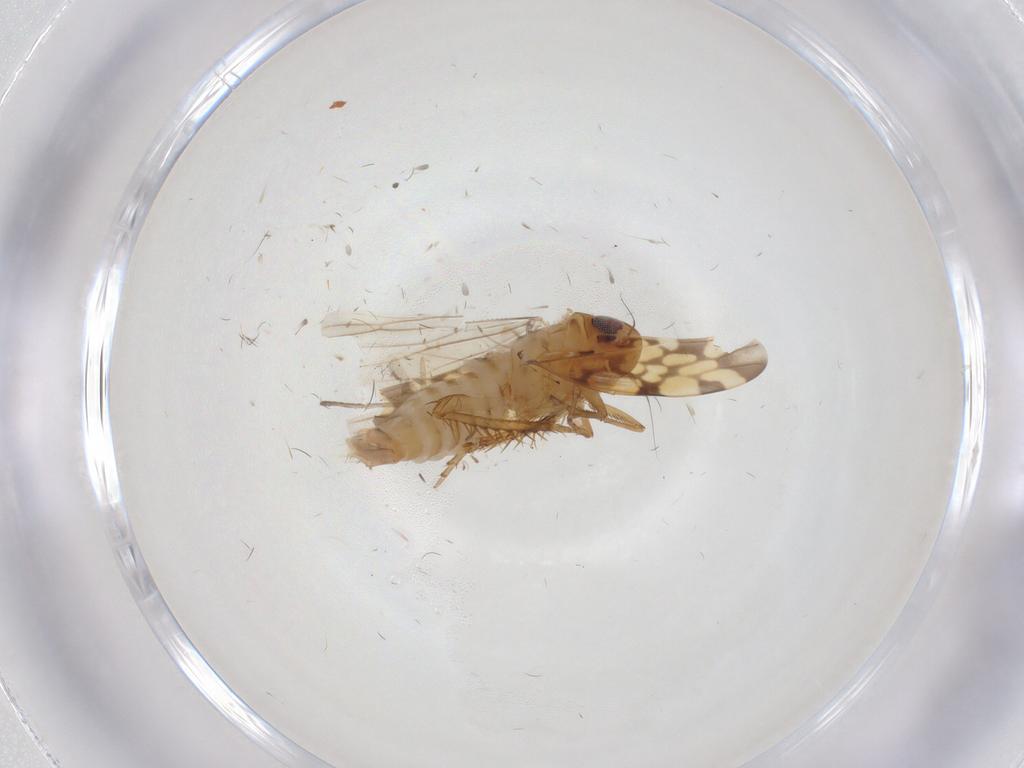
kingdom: Animalia
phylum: Arthropoda
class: Insecta
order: Hemiptera
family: Cicadellidae
